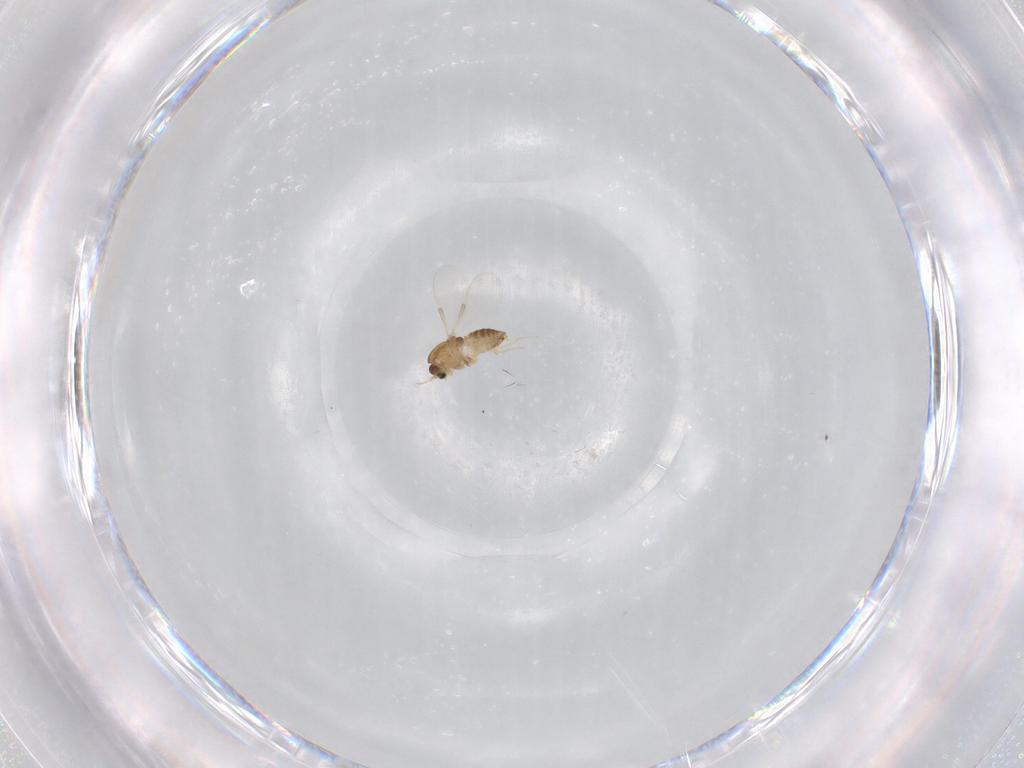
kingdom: Animalia
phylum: Arthropoda
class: Insecta
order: Diptera
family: Chironomidae
